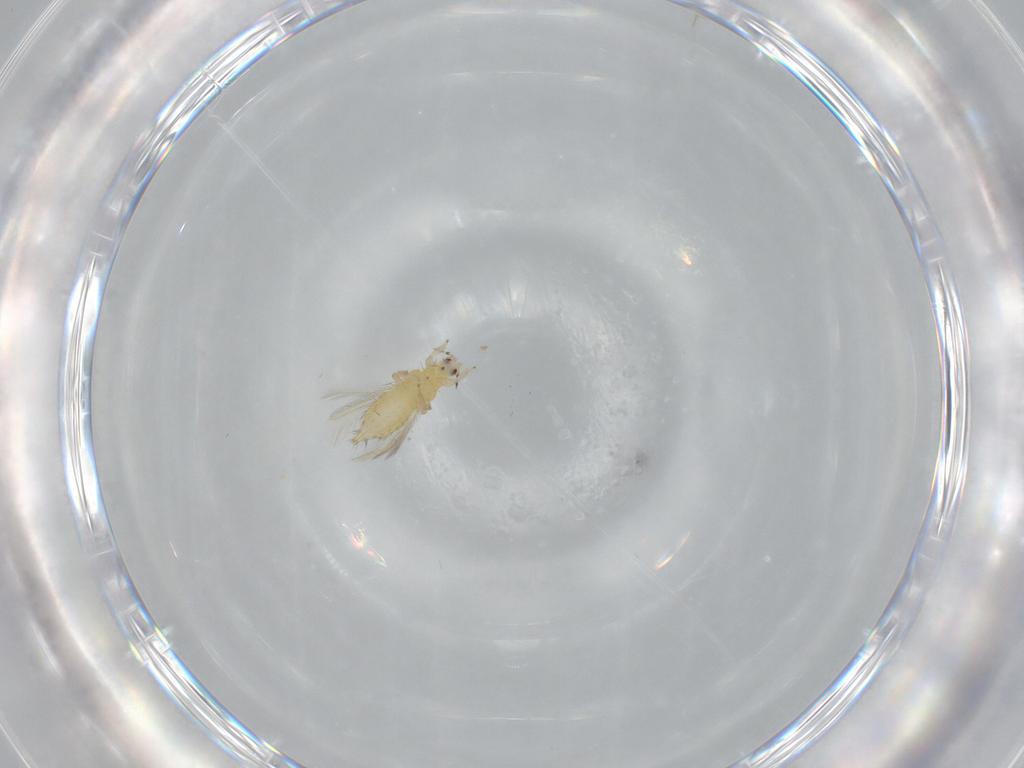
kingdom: Animalia
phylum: Arthropoda
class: Insecta
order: Thysanoptera
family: Thripidae
